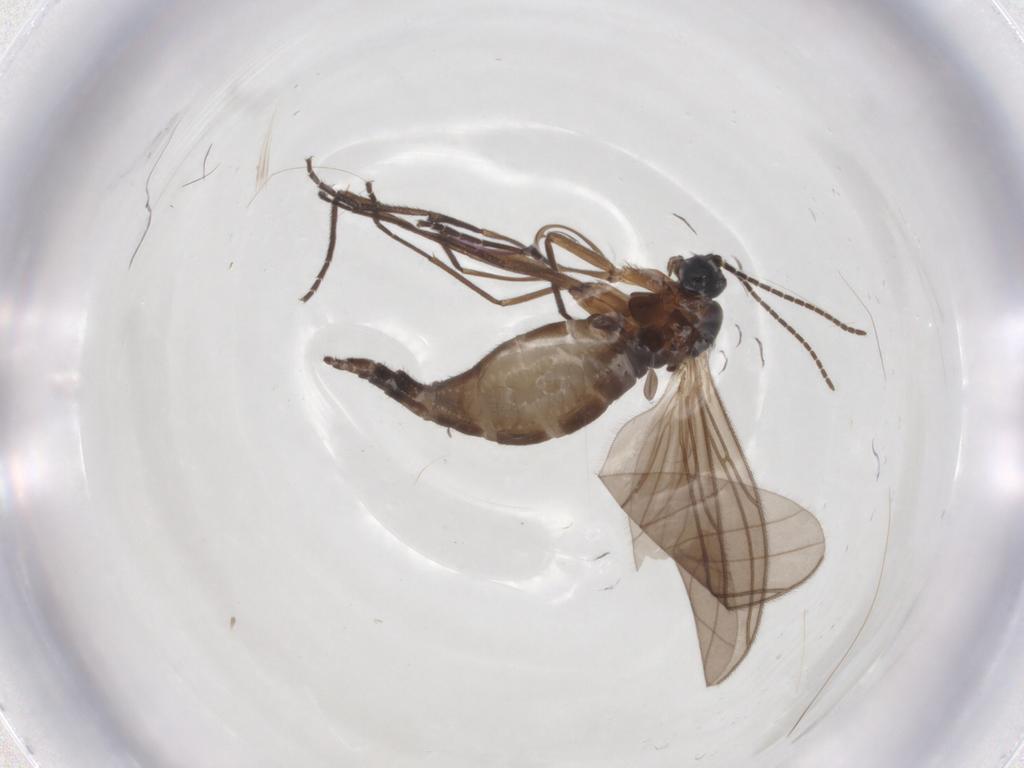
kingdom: Animalia
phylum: Arthropoda
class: Insecta
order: Diptera
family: Sciaridae
